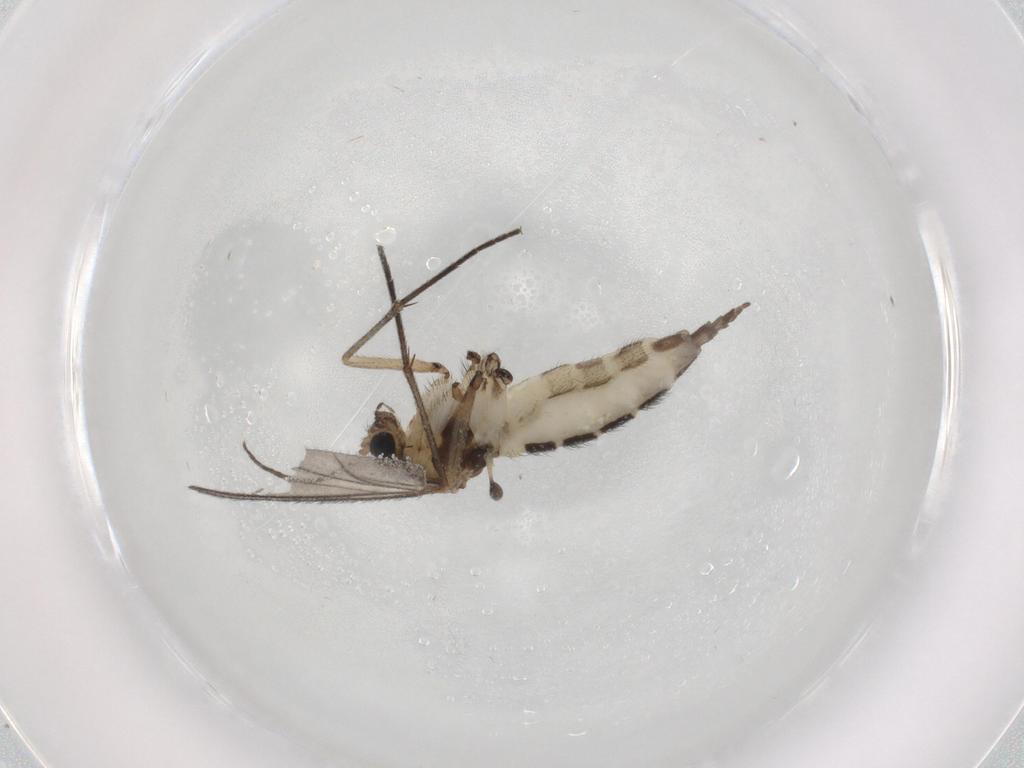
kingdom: Animalia
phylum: Arthropoda
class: Insecta
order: Diptera
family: Sciaridae
